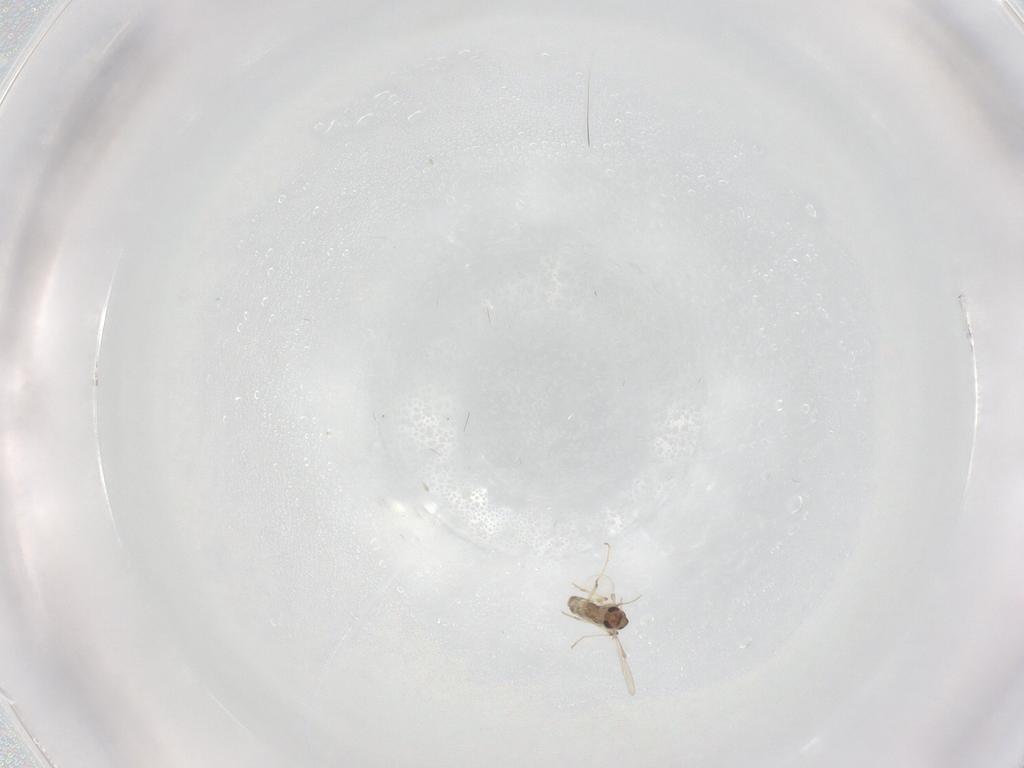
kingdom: Animalia
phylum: Arthropoda
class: Insecta
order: Diptera
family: Chironomidae
